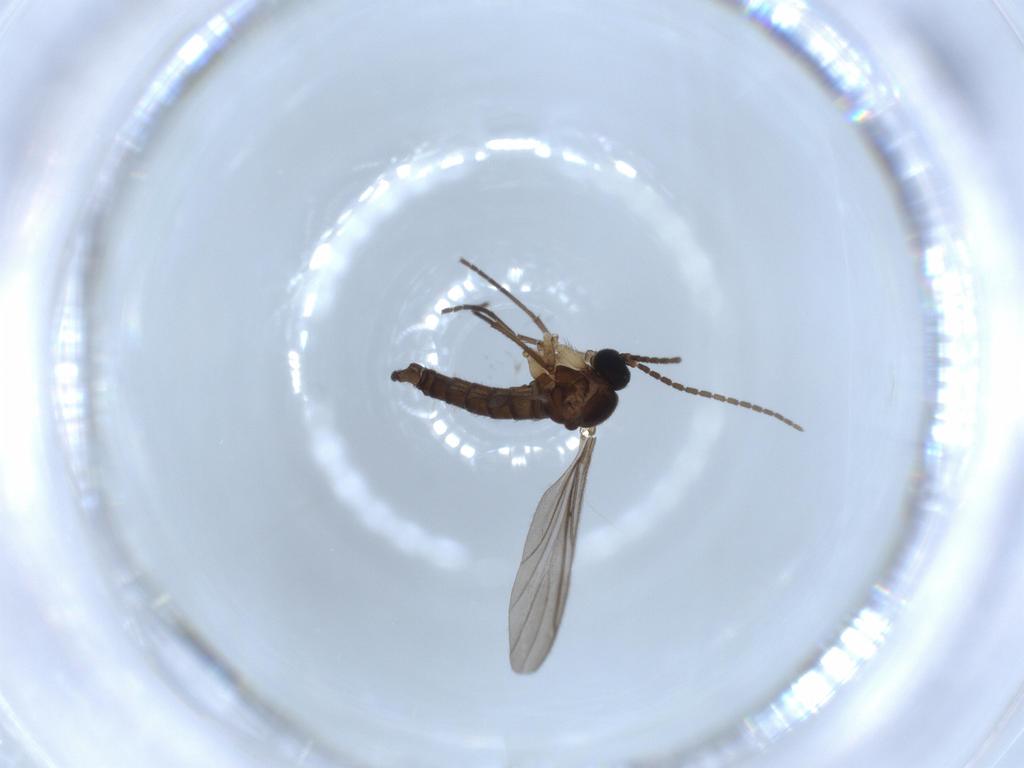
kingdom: Animalia
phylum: Arthropoda
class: Insecta
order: Diptera
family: Sciaridae
